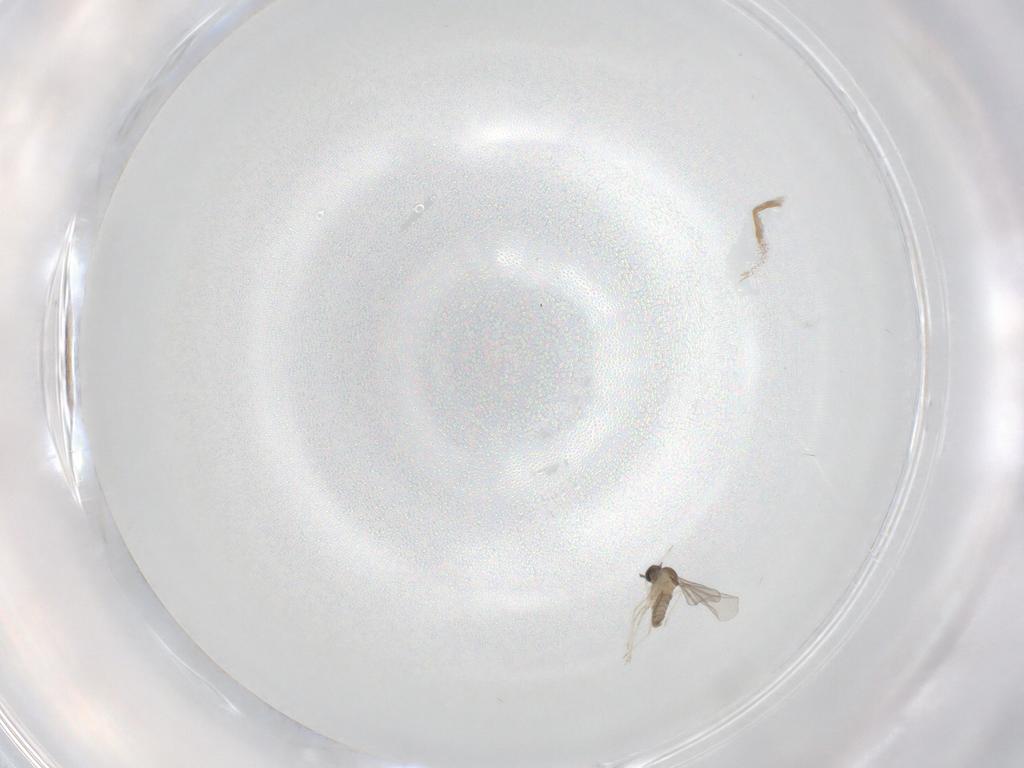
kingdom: Animalia
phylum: Arthropoda
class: Insecta
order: Diptera
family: Cecidomyiidae
